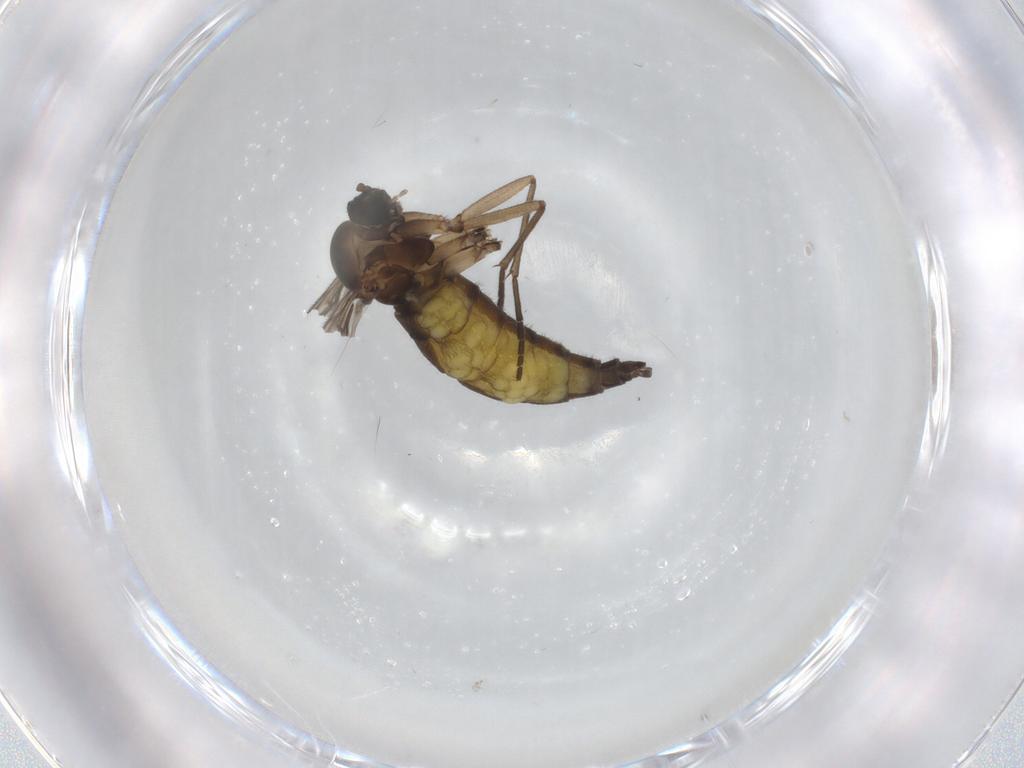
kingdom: Animalia
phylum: Arthropoda
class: Insecta
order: Diptera
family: Sciaridae
